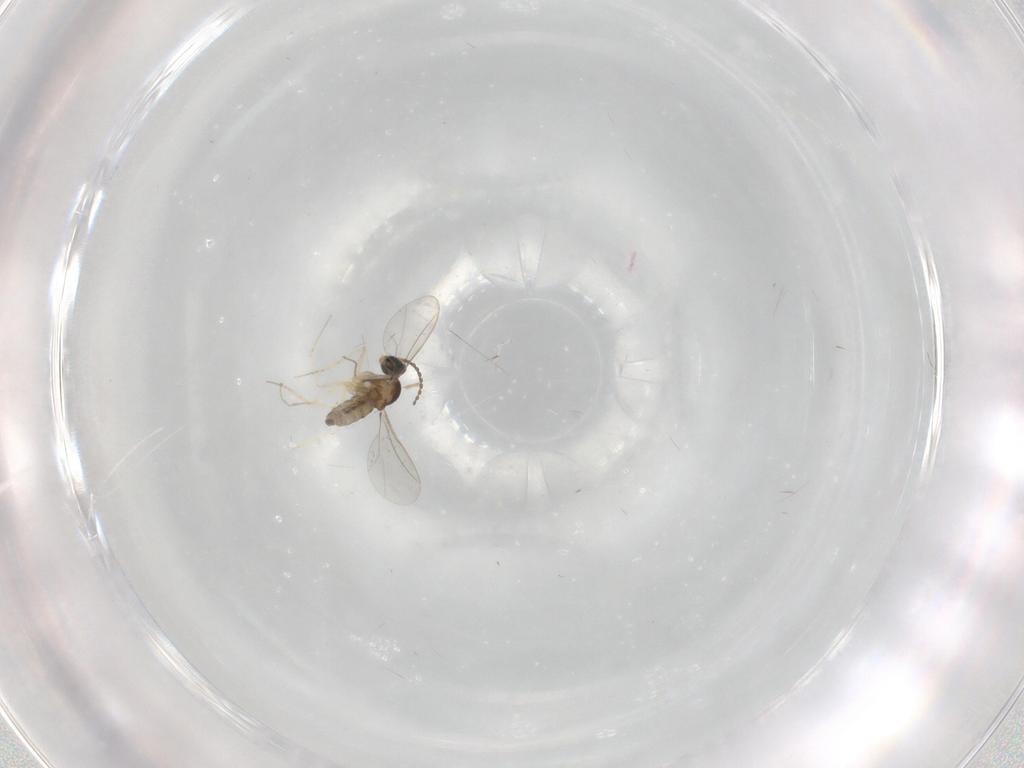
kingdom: Animalia
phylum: Arthropoda
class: Insecta
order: Diptera
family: Cecidomyiidae
